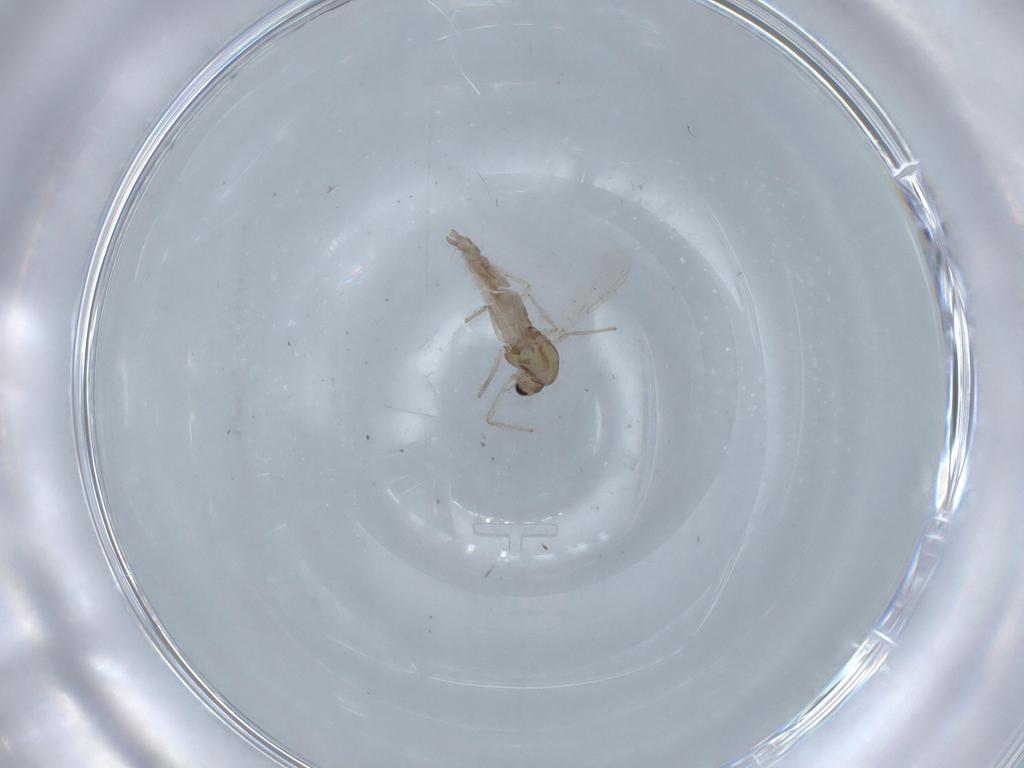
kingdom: Animalia
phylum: Arthropoda
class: Insecta
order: Diptera
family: Chironomidae
